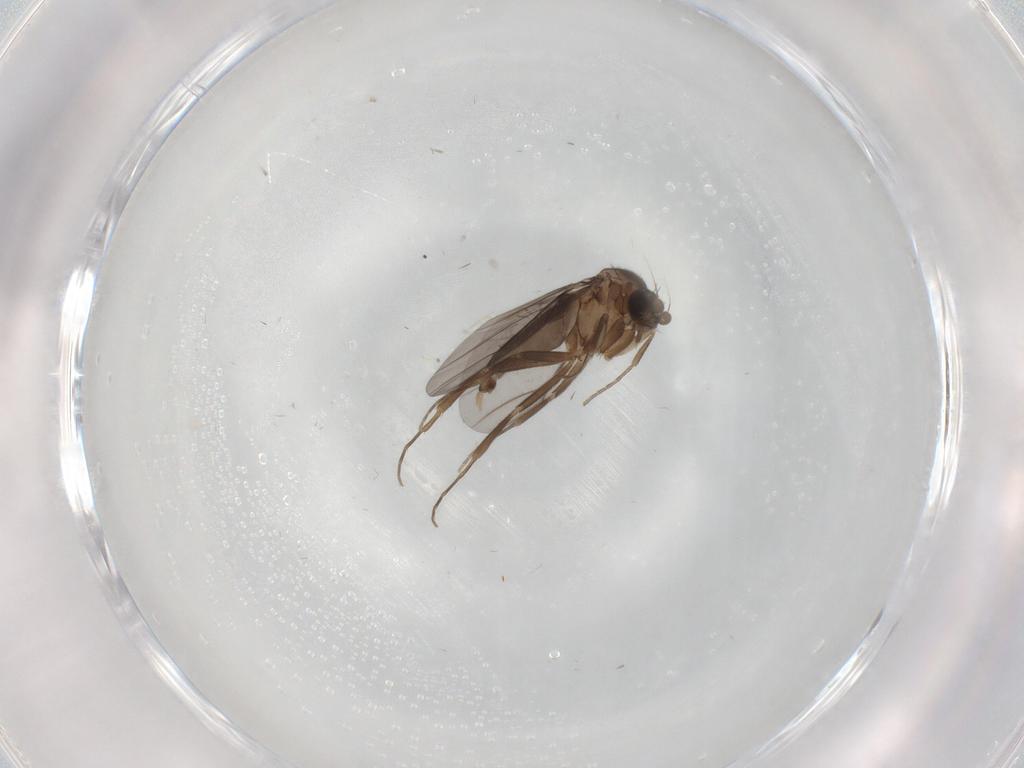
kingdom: Animalia
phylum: Arthropoda
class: Insecta
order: Diptera
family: Culicidae
